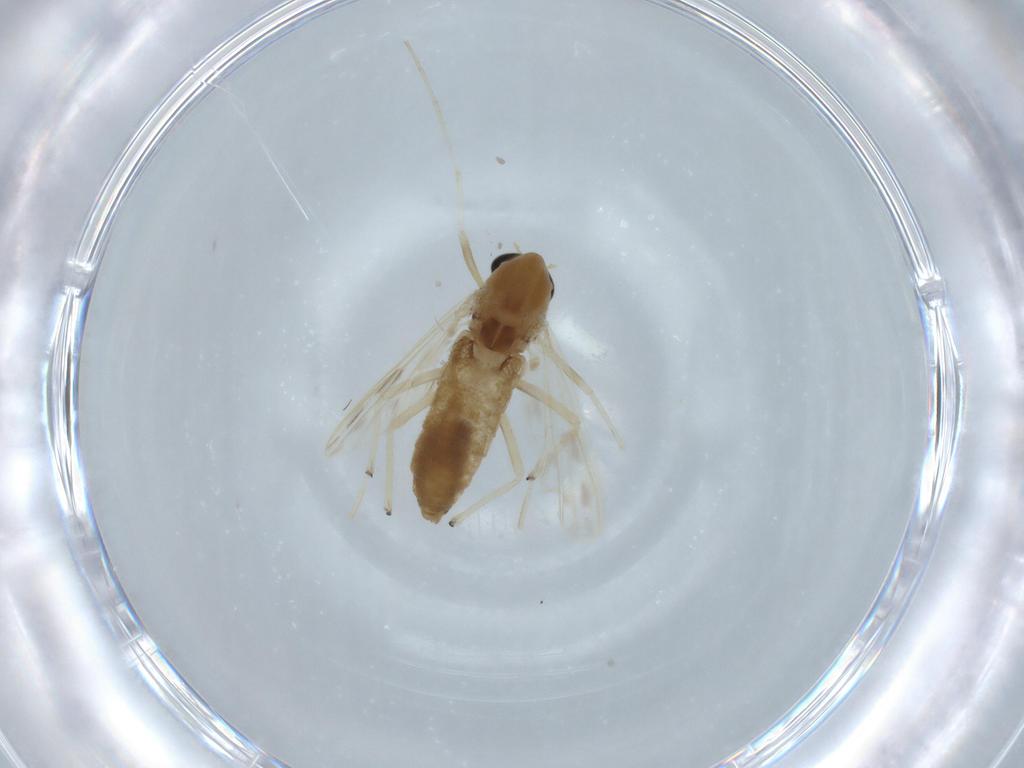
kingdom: Animalia
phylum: Arthropoda
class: Insecta
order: Diptera
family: Chironomidae
